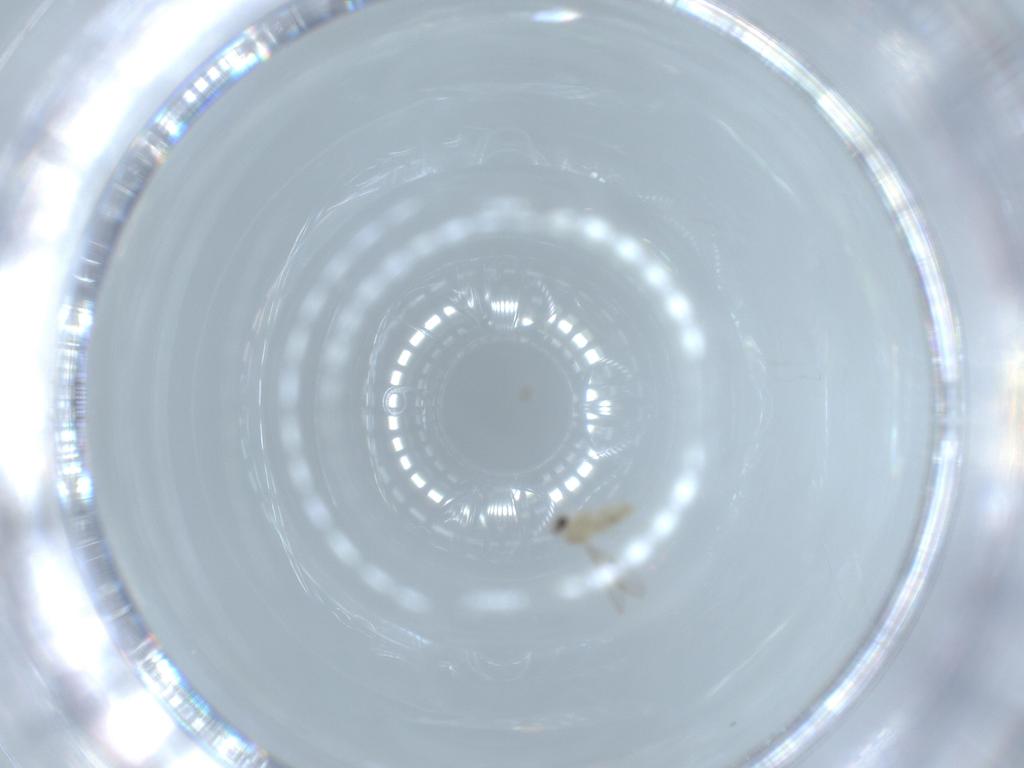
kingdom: Animalia
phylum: Arthropoda
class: Insecta
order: Diptera
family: Cecidomyiidae
